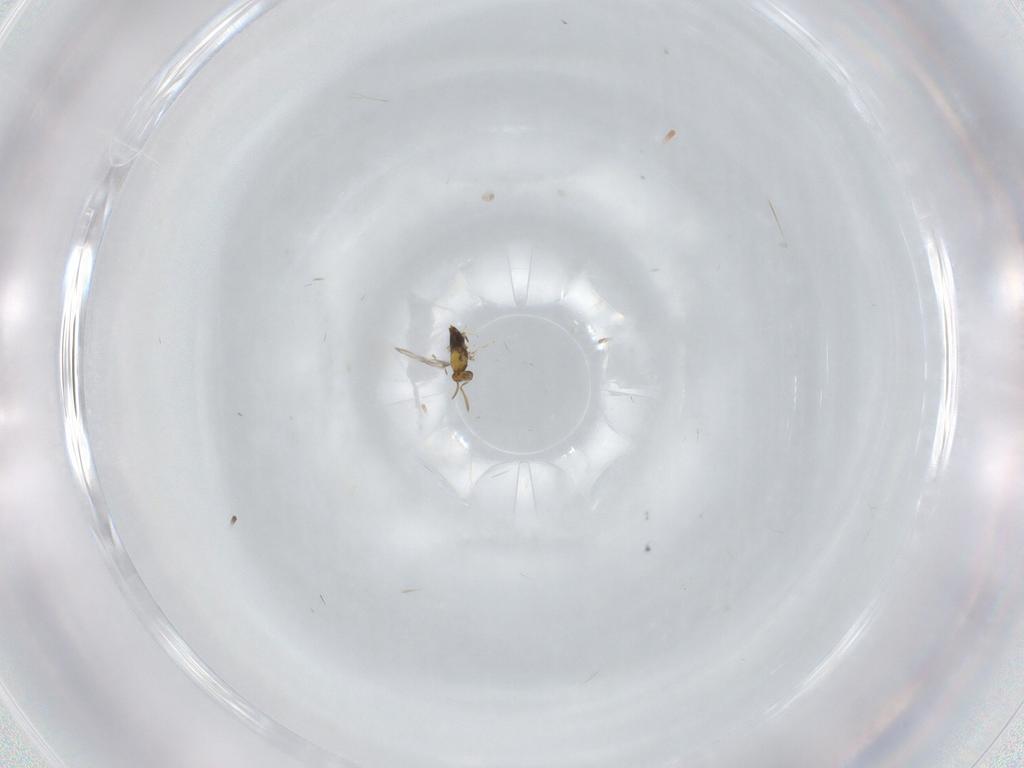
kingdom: Animalia
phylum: Arthropoda
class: Insecta
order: Hymenoptera
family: Aphelinidae
